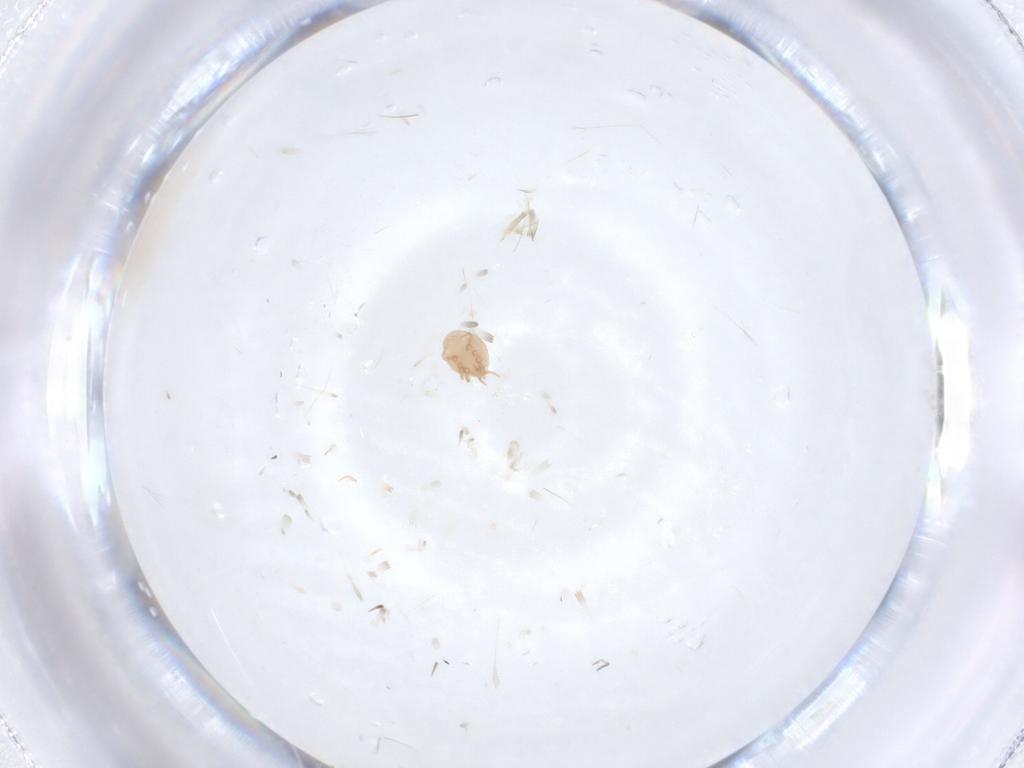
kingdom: Animalia
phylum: Arthropoda
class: Arachnida
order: Mesostigmata
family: Trematuridae
